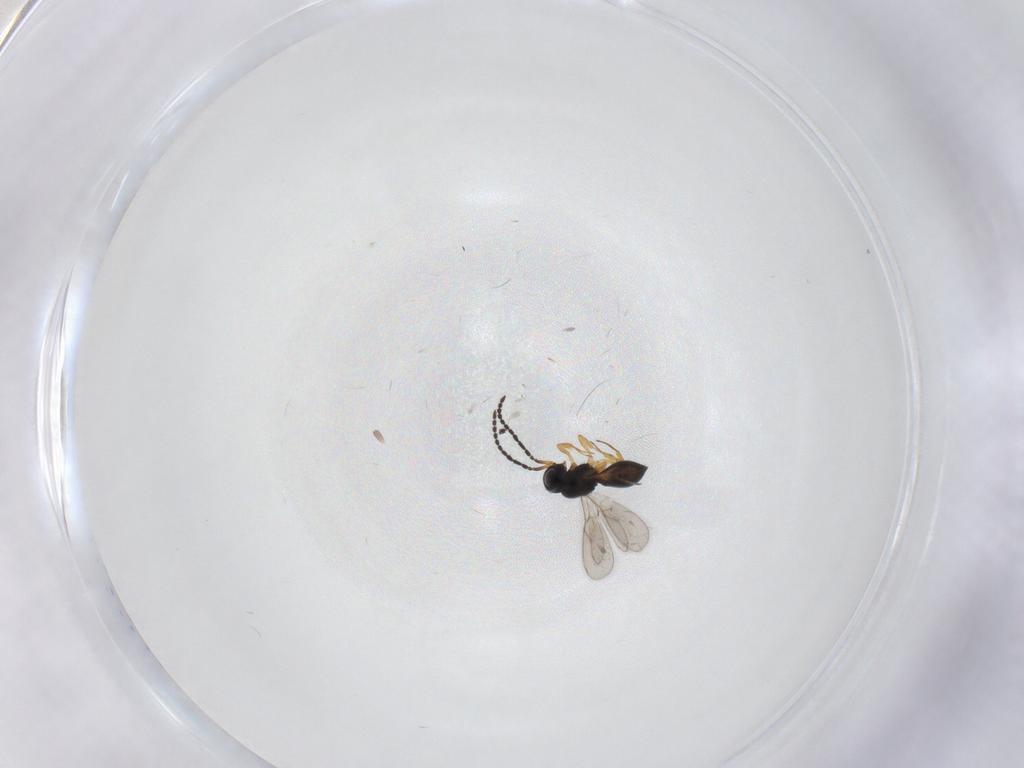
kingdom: Animalia
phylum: Arthropoda
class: Insecta
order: Hymenoptera
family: Scelionidae
